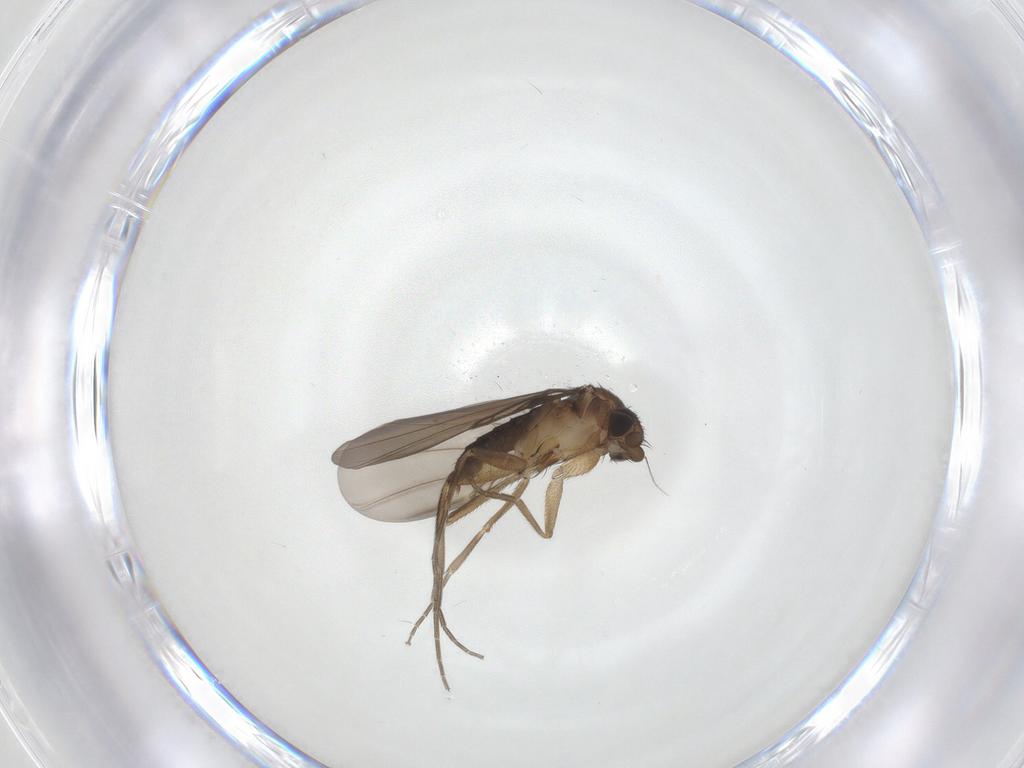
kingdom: Animalia
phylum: Arthropoda
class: Insecta
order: Diptera
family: Phoridae
